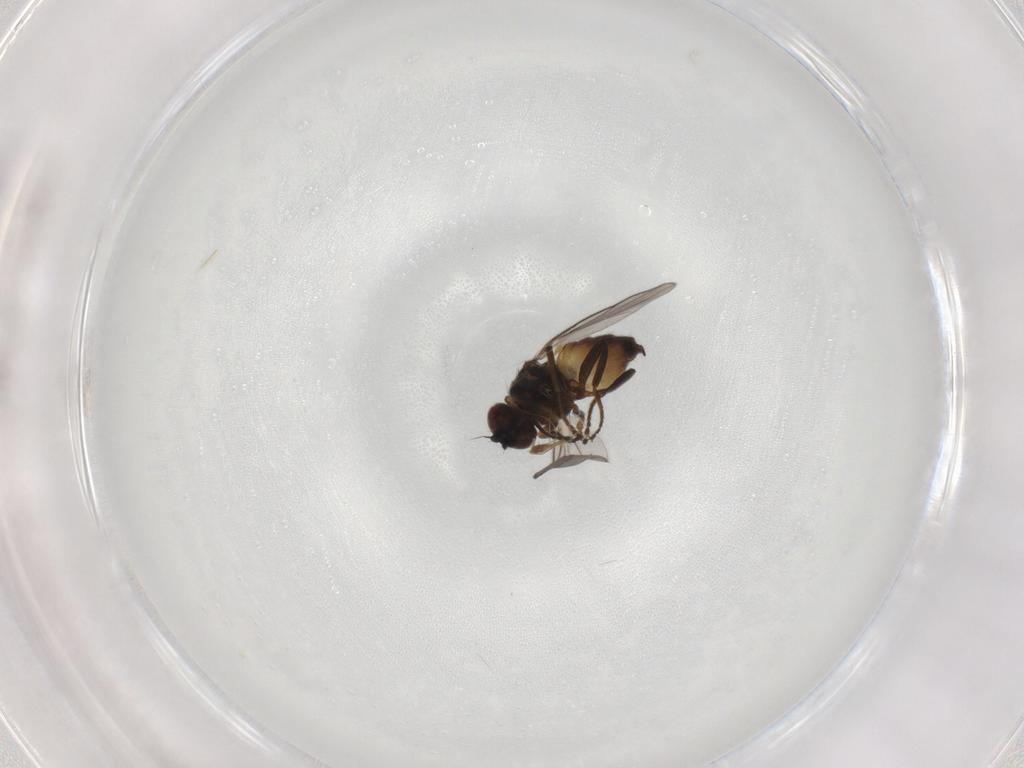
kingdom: Animalia
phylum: Arthropoda
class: Insecta
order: Diptera
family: Chloropidae
